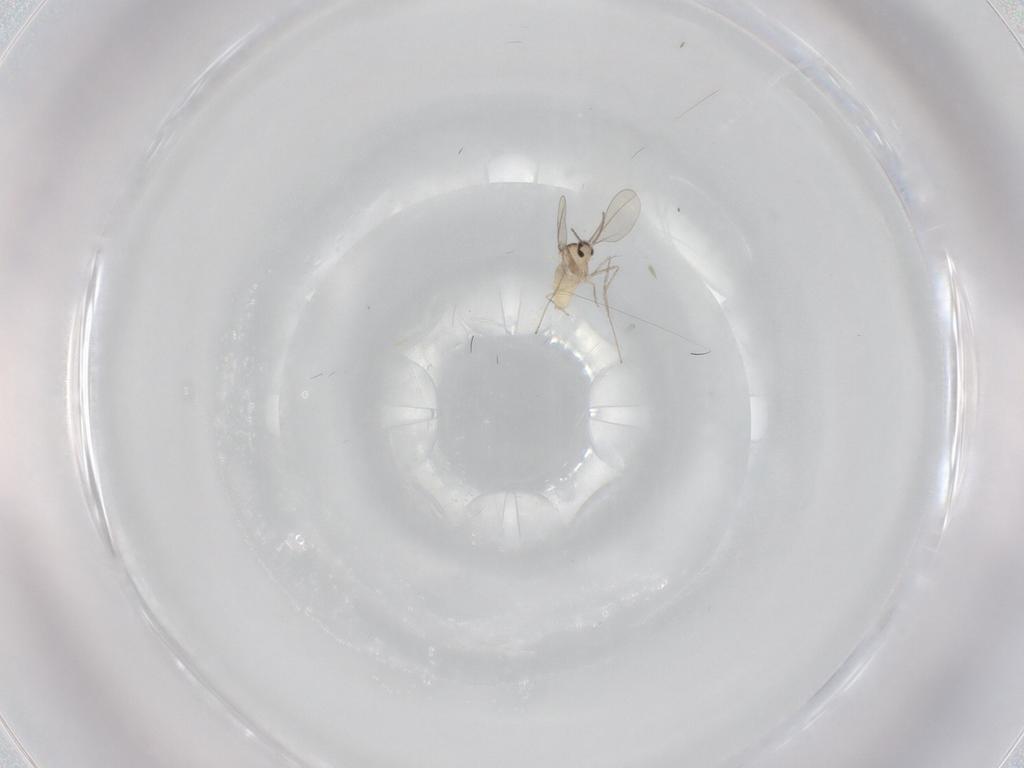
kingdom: Animalia
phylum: Arthropoda
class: Insecta
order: Diptera
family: Cecidomyiidae
